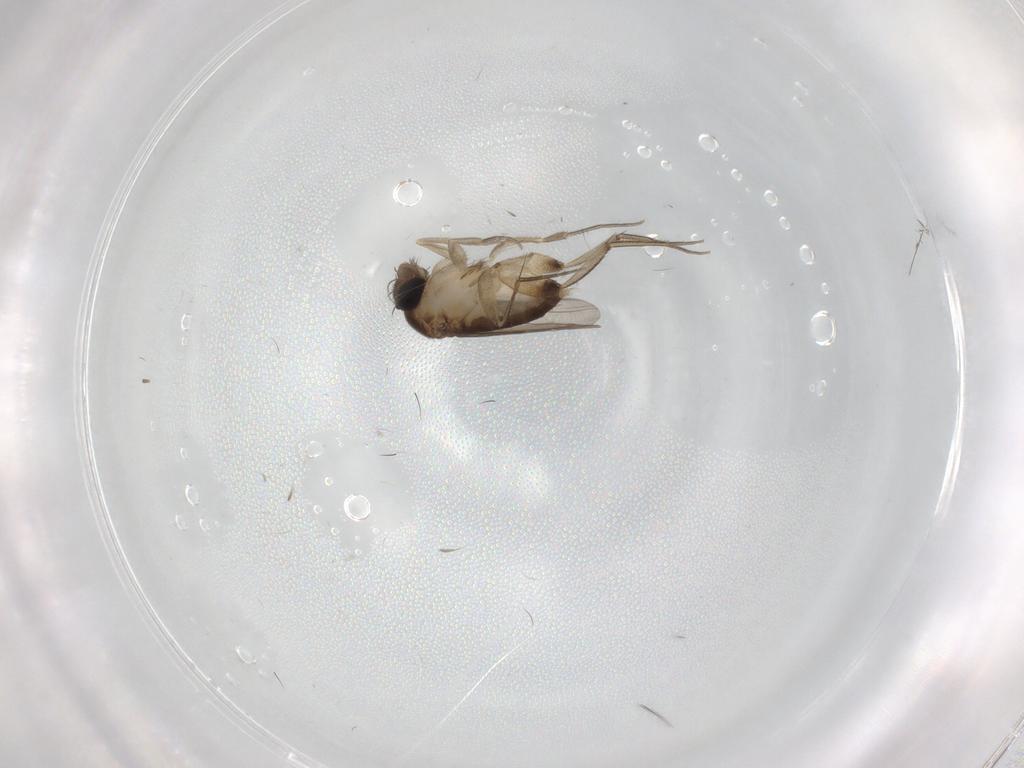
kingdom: Animalia
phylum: Arthropoda
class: Insecta
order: Diptera
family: Phoridae
